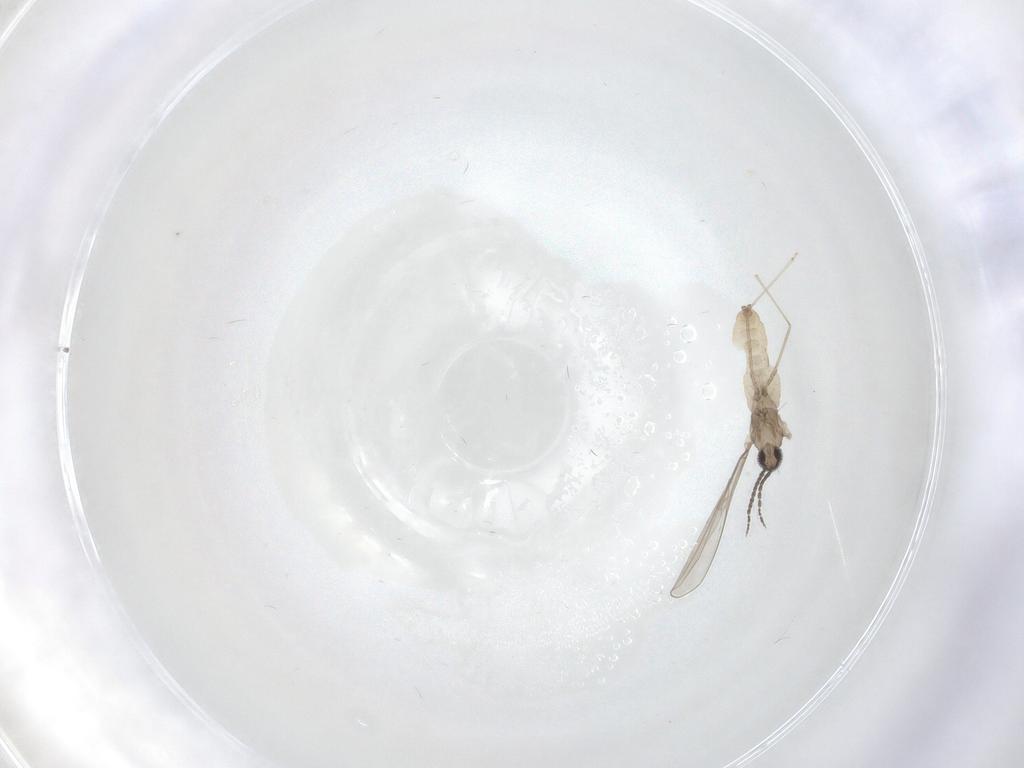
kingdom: Animalia
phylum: Arthropoda
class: Insecta
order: Diptera
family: Cecidomyiidae
